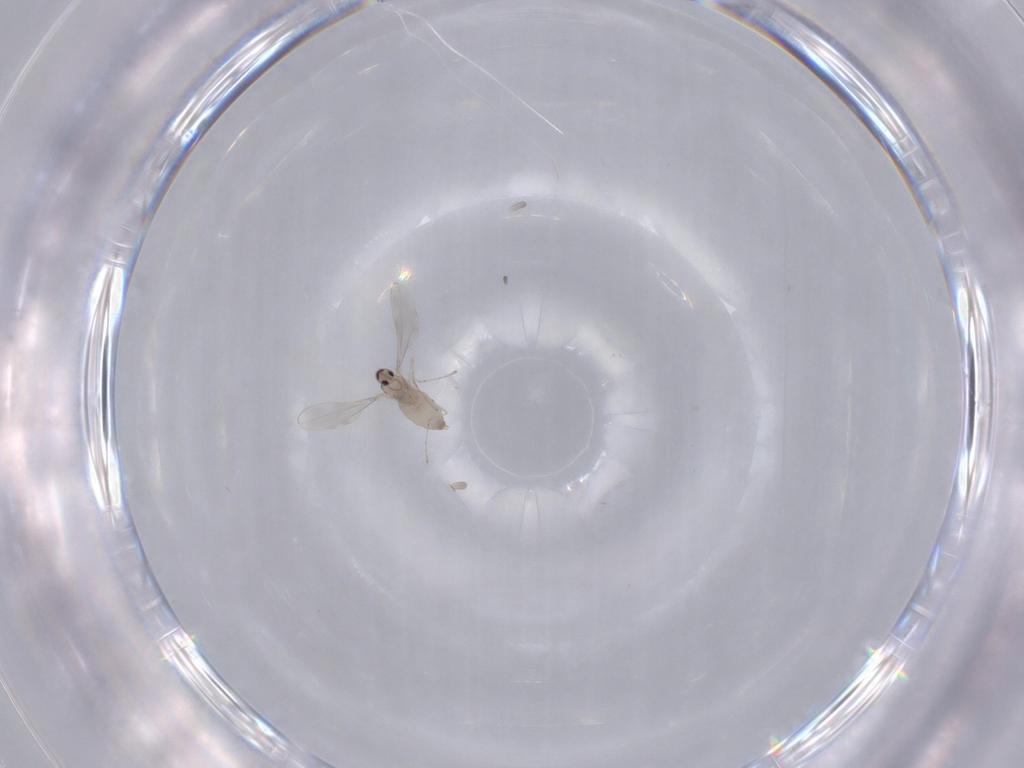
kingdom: Animalia
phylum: Arthropoda
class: Insecta
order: Diptera
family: Cecidomyiidae
